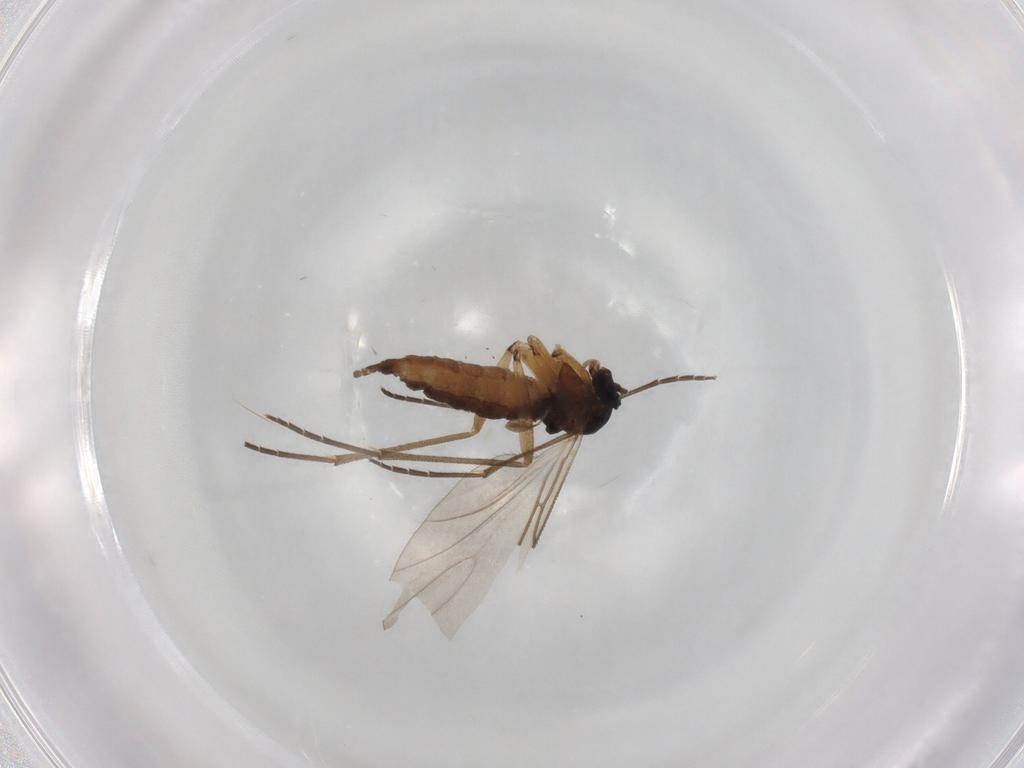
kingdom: Animalia
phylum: Arthropoda
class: Insecta
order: Diptera
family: Sciaridae
